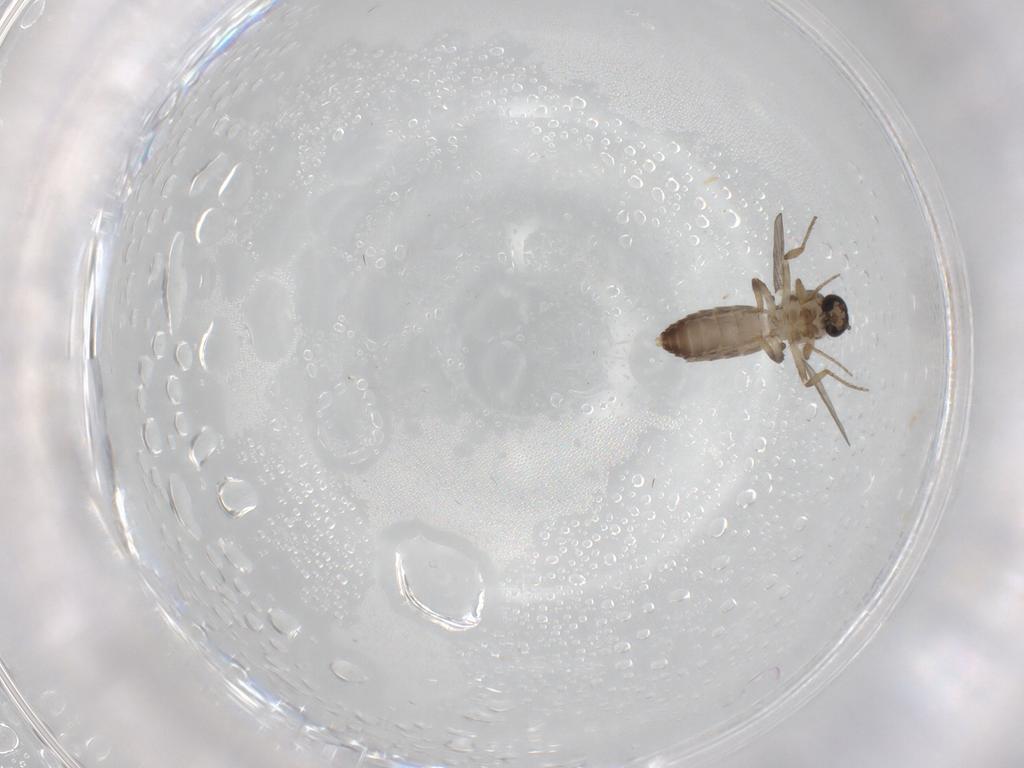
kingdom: Animalia
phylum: Arthropoda
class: Insecta
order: Diptera
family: Ceratopogonidae
